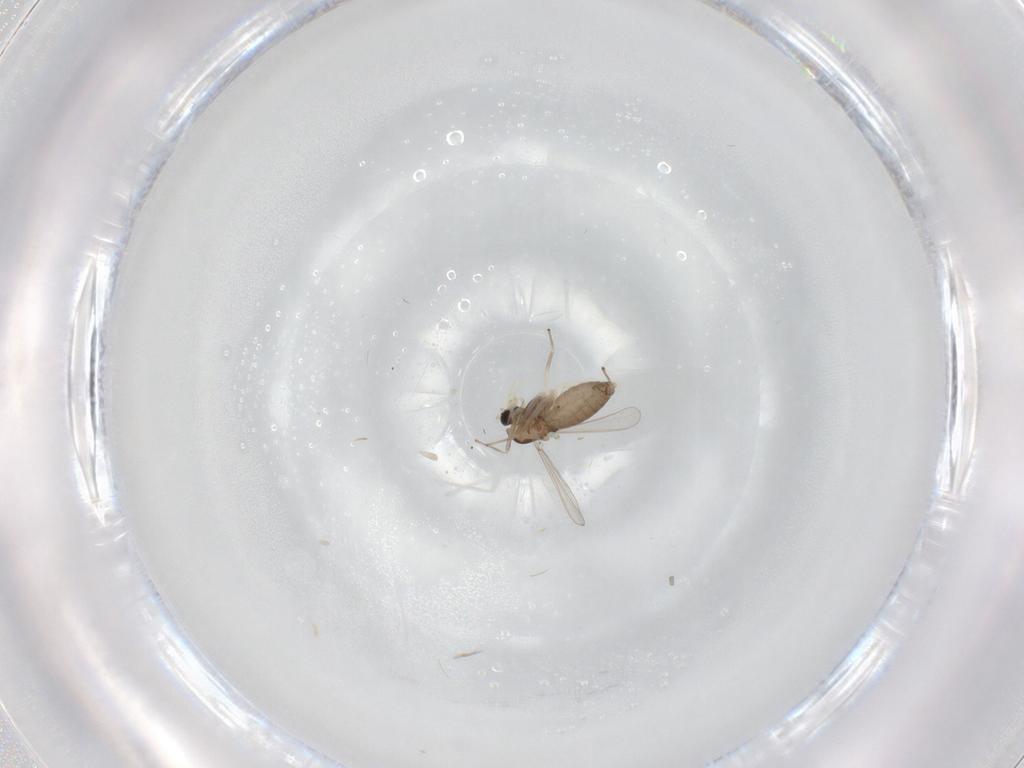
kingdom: Animalia
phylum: Arthropoda
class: Insecta
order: Diptera
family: Chironomidae
